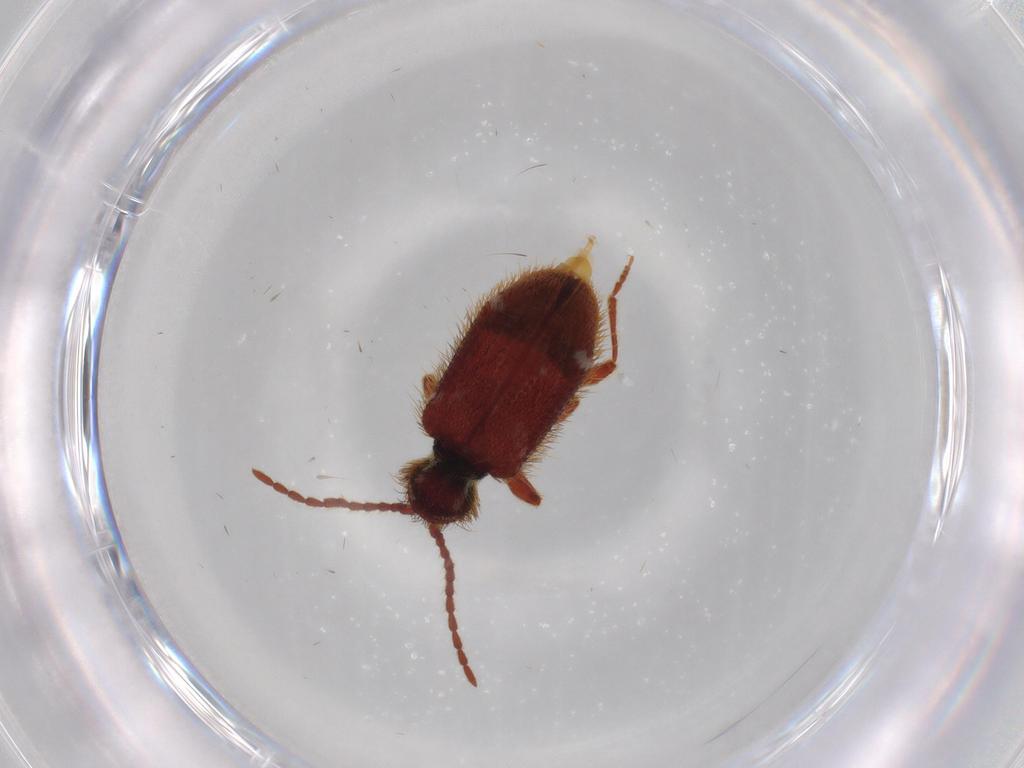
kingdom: Animalia
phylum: Arthropoda
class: Insecta
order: Coleoptera
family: Ptinidae
